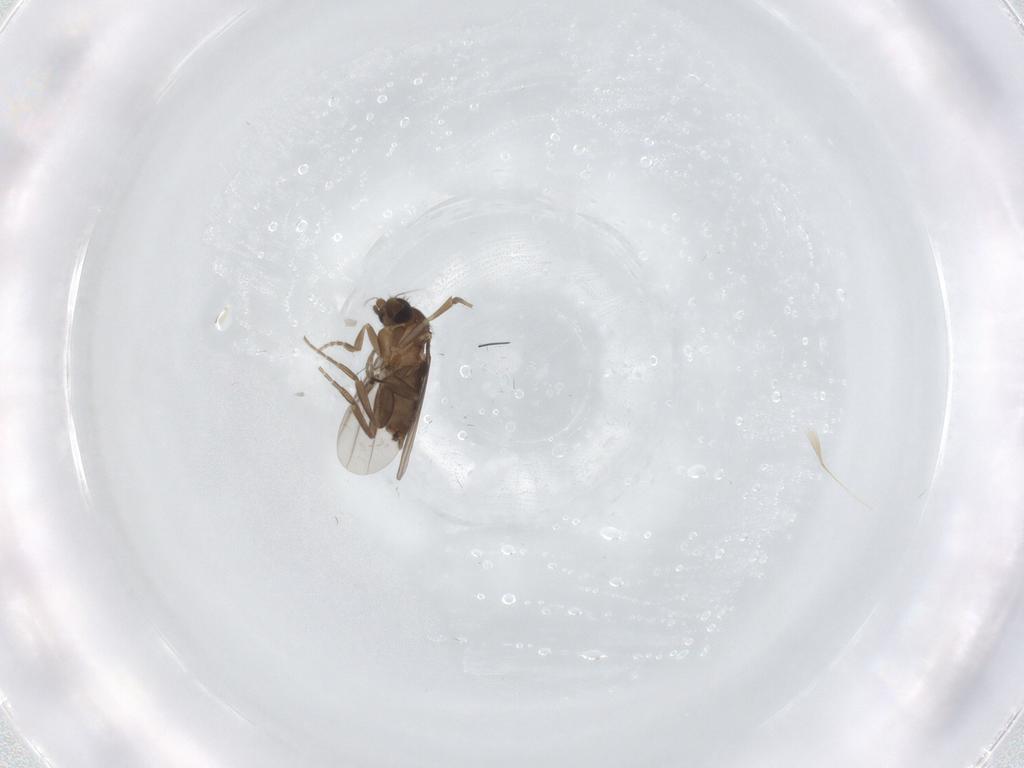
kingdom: Animalia
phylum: Arthropoda
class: Insecta
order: Diptera
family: Phoridae
